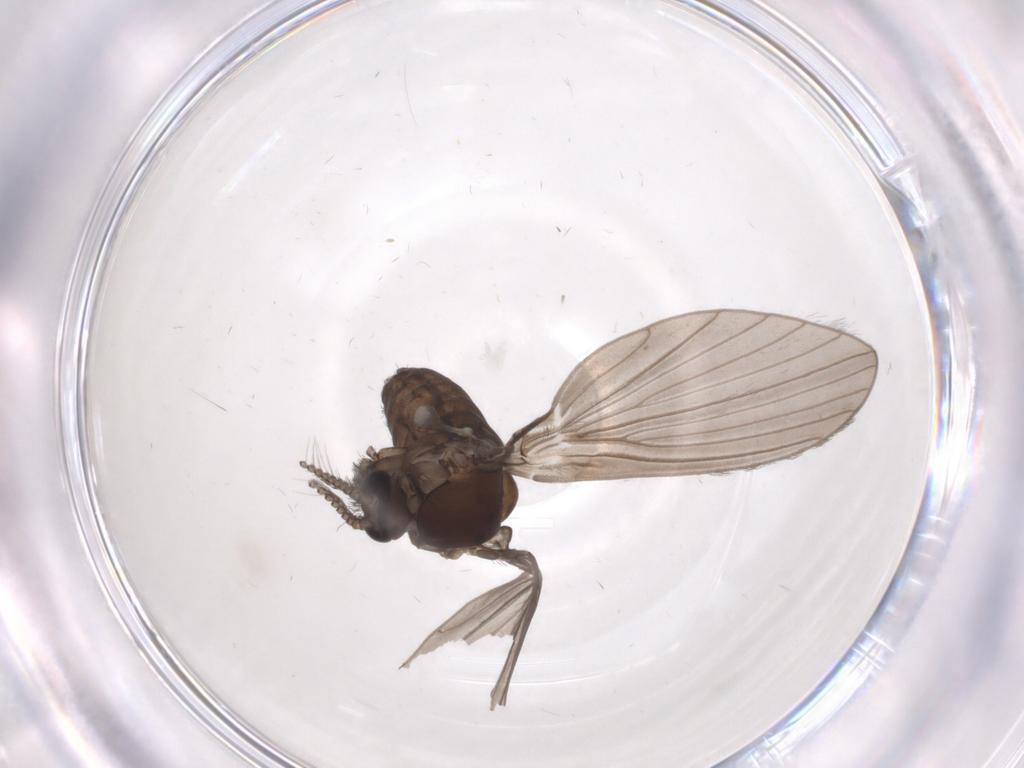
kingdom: Animalia
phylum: Arthropoda
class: Insecta
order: Diptera
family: Psychodidae
